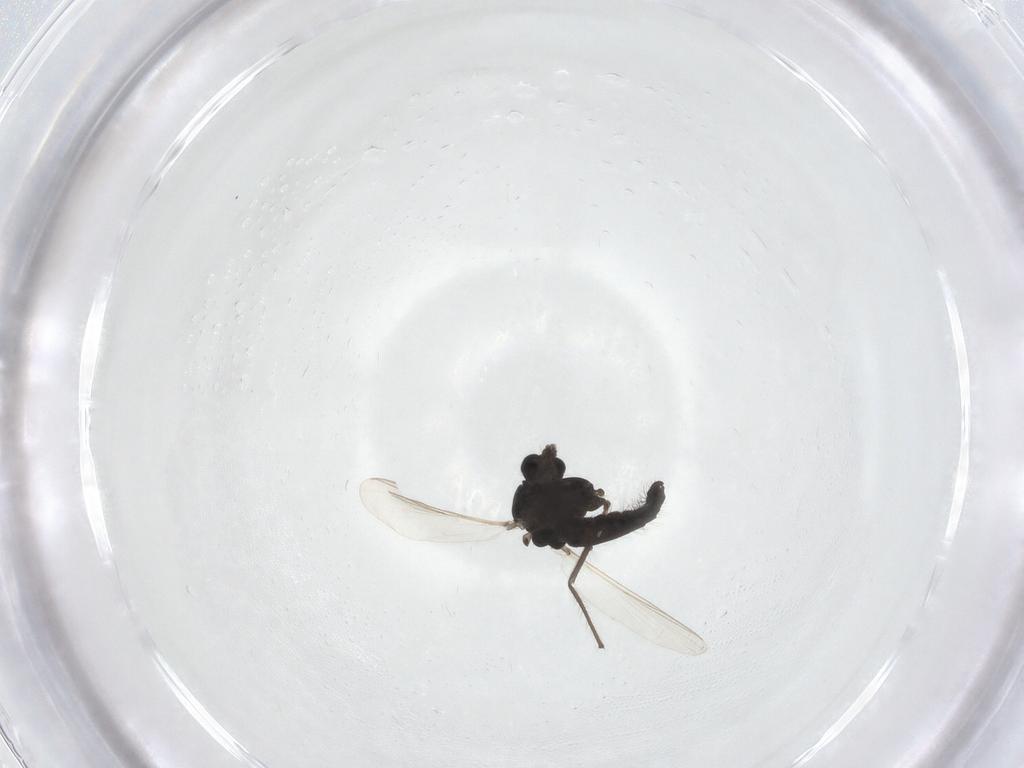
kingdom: Animalia
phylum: Arthropoda
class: Insecta
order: Diptera
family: Chironomidae
